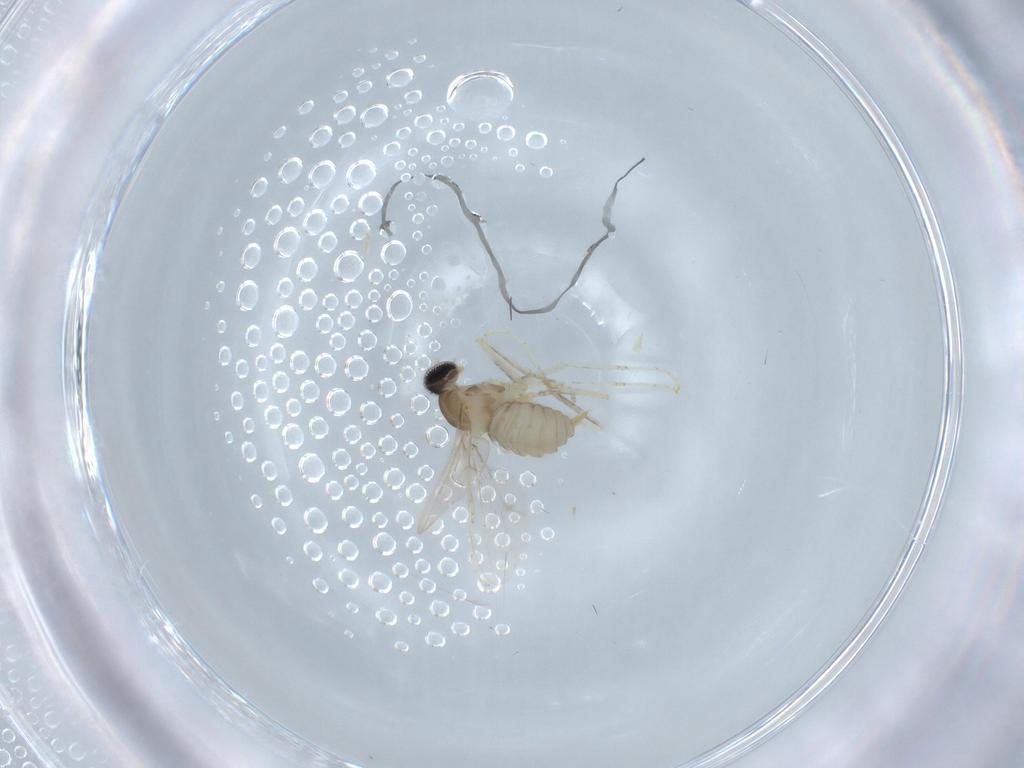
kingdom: Animalia
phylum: Arthropoda
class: Insecta
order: Diptera
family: Cecidomyiidae
